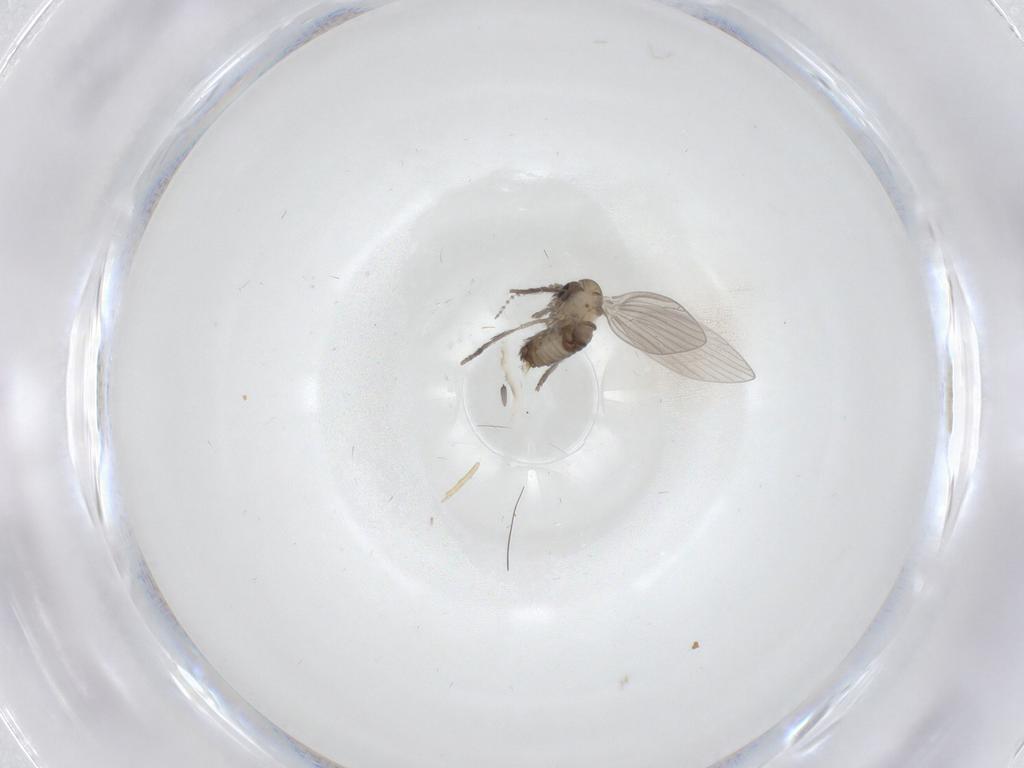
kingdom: Animalia
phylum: Arthropoda
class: Insecta
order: Diptera
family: Psychodidae
